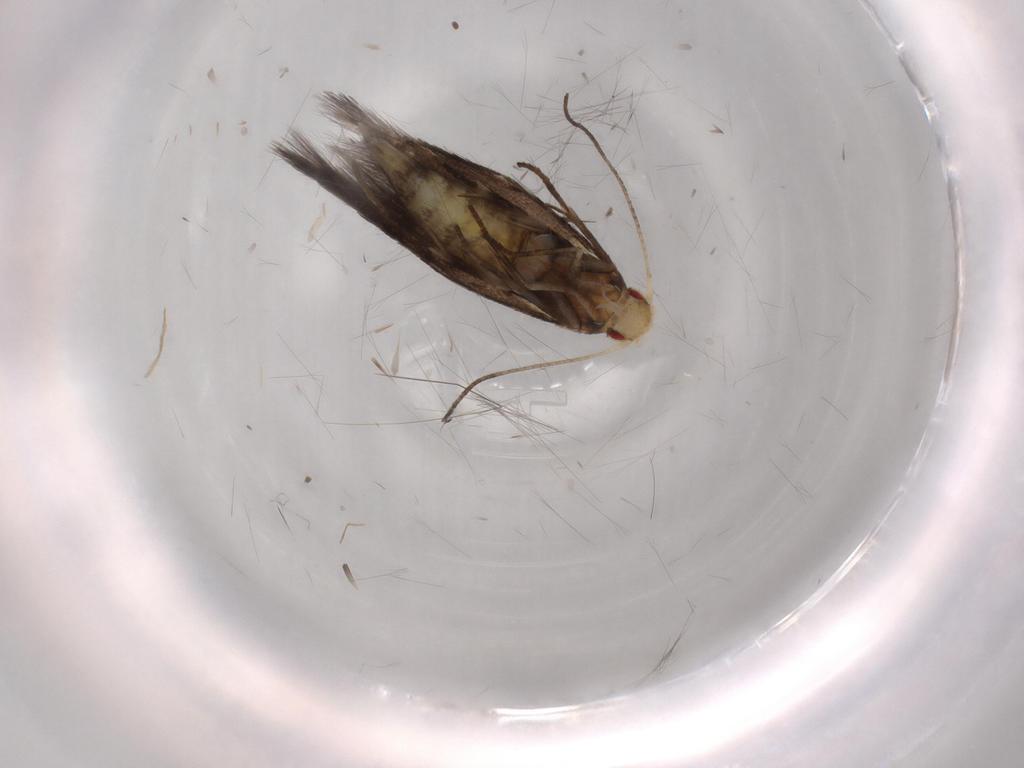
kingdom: Animalia
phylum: Arthropoda
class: Insecta
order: Lepidoptera
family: Cosmopterigidae
